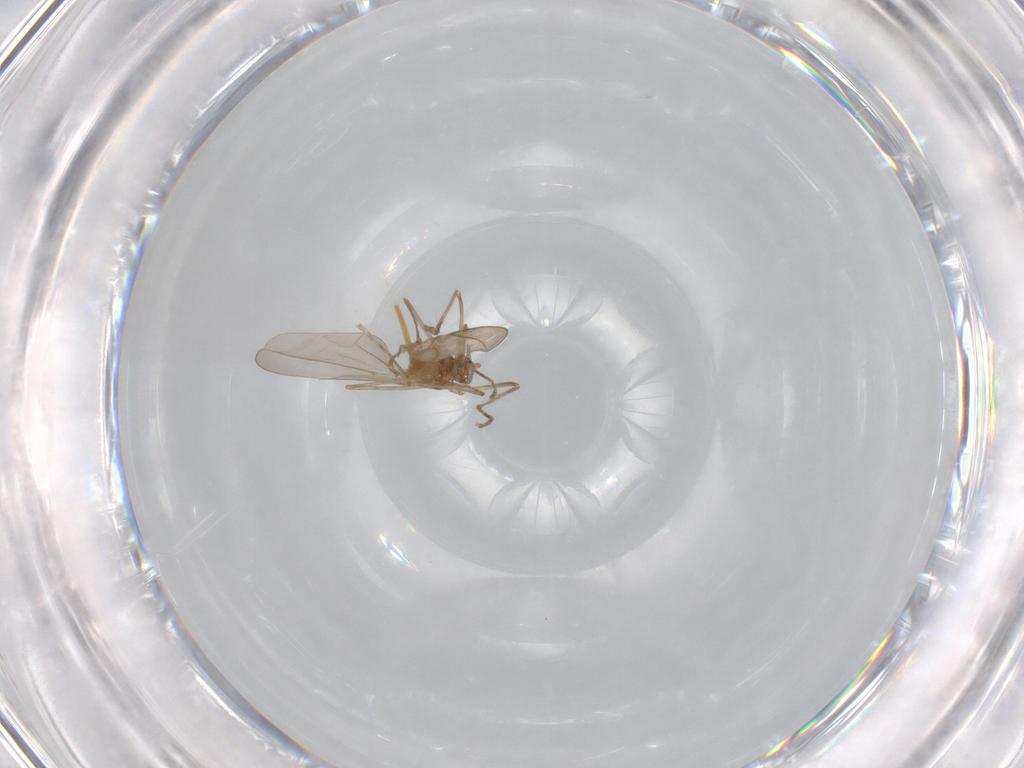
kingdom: Animalia
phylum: Arthropoda
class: Insecta
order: Diptera
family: Cecidomyiidae
